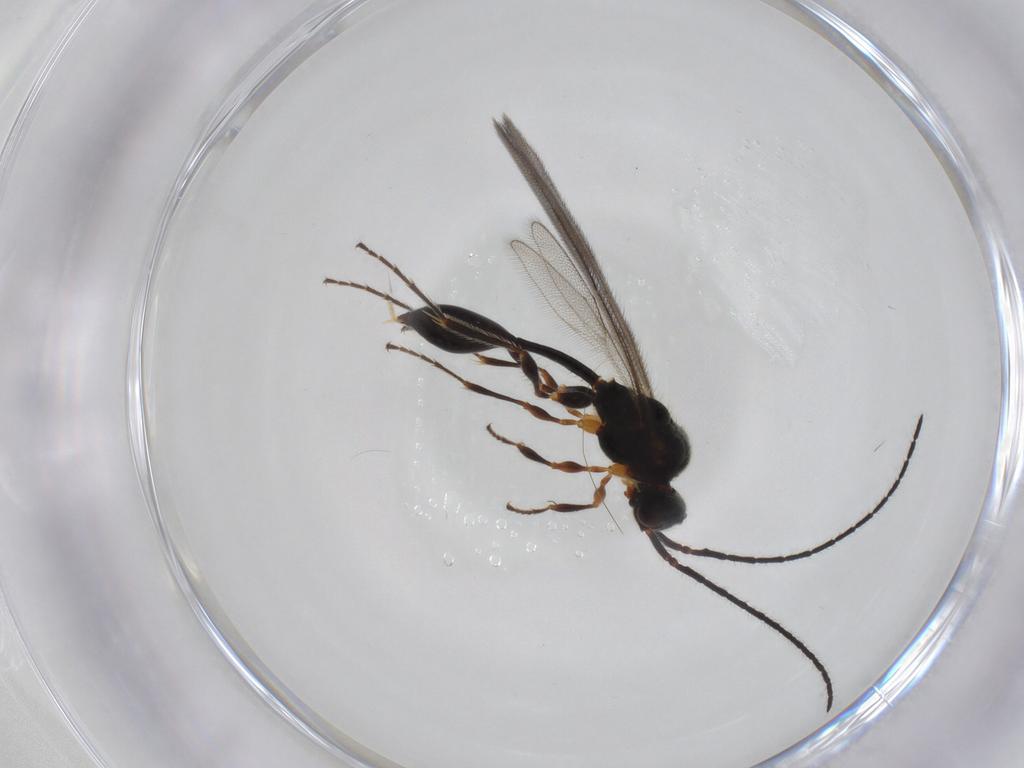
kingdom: Animalia
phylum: Arthropoda
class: Insecta
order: Hymenoptera
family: Diapriidae
